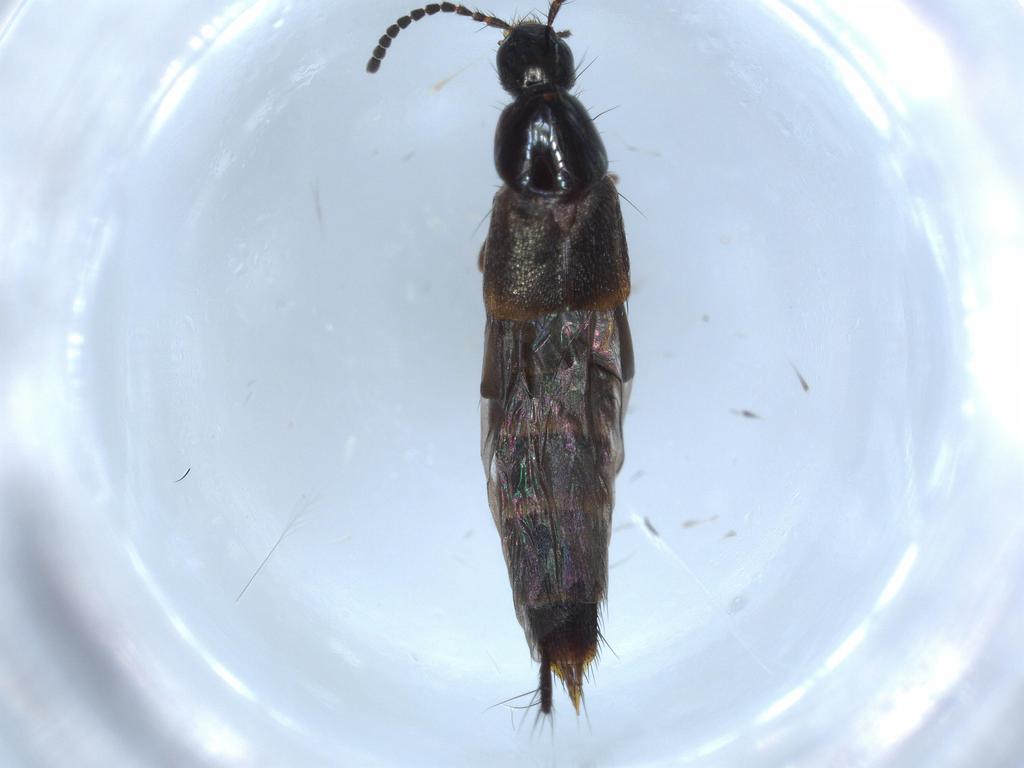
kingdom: Animalia
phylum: Arthropoda
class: Insecta
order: Coleoptera
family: Staphylinidae
